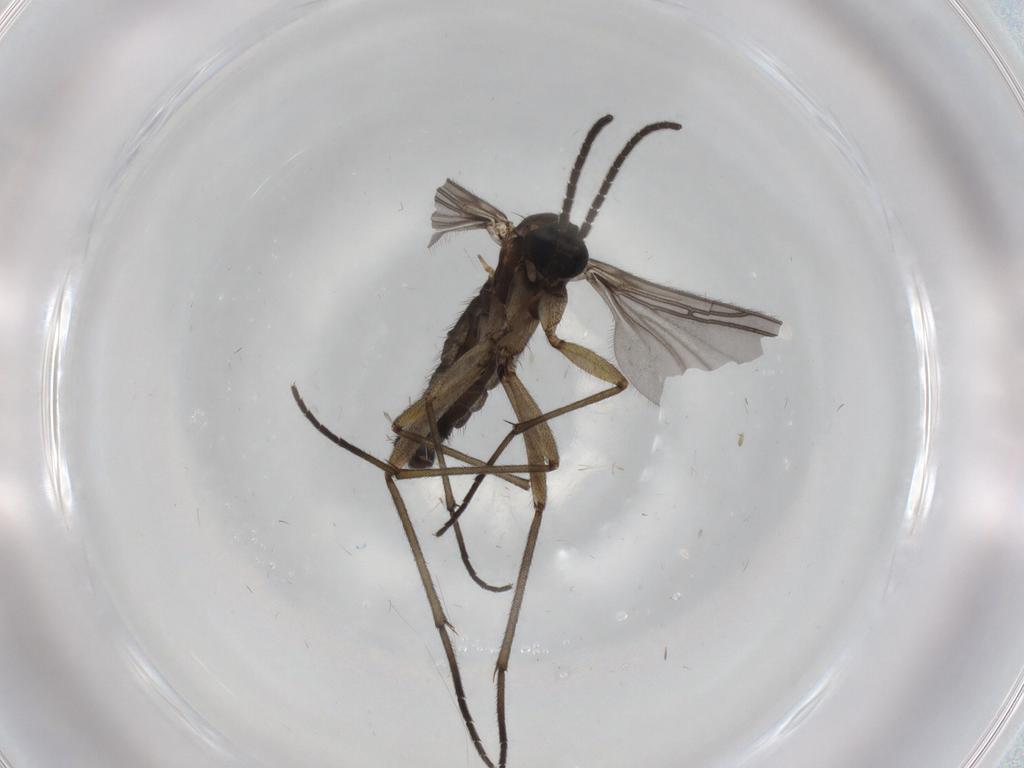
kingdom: Animalia
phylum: Arthropoda
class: Insecta
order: Diptera
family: Sciaridae
